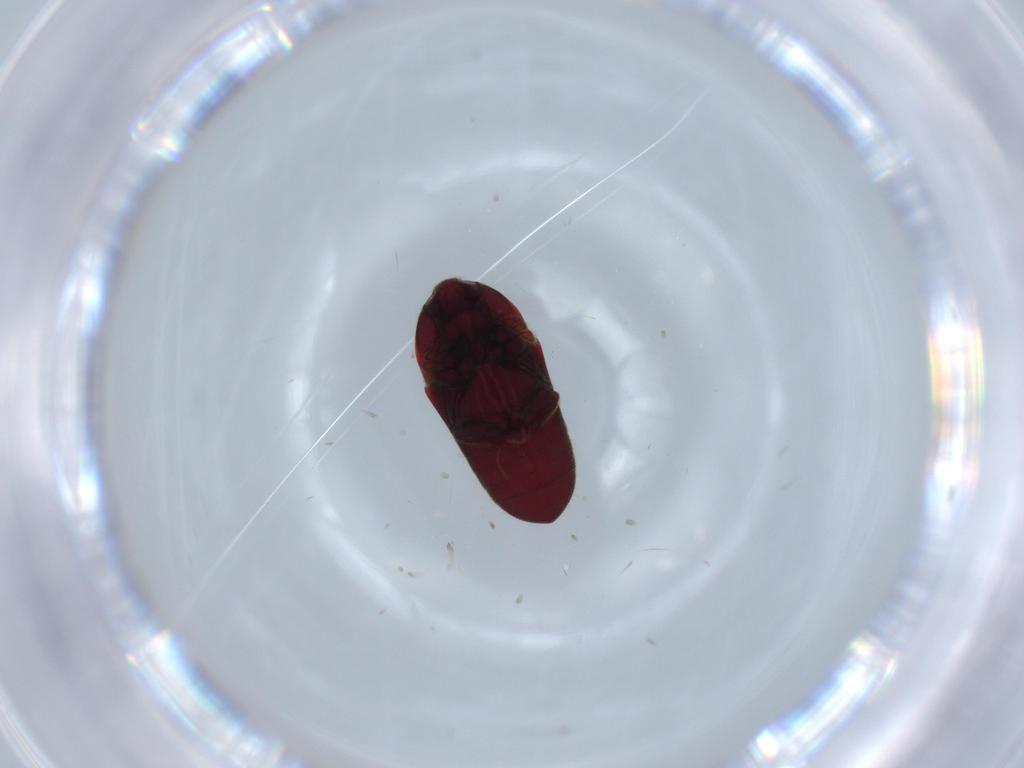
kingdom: Animalia
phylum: Arthropoda
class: Insecta
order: Coleoptera
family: Throscidae
